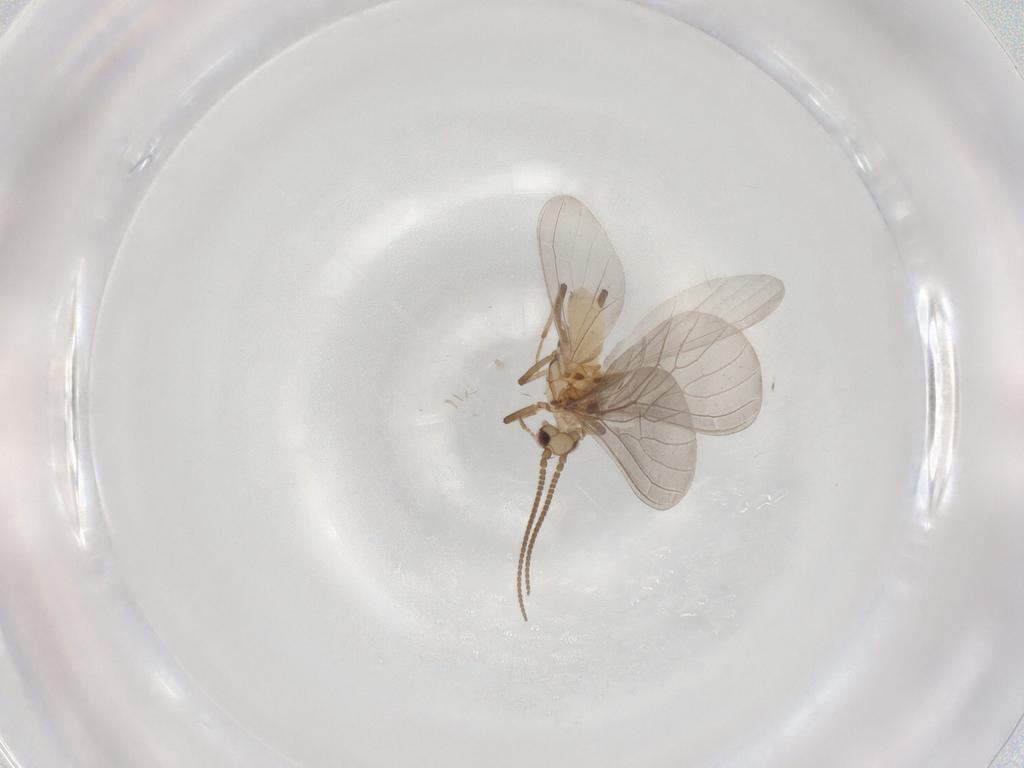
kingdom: Animalia
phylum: Arthropoda
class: Insecta
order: Neuroptera
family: Coniopterygidae
